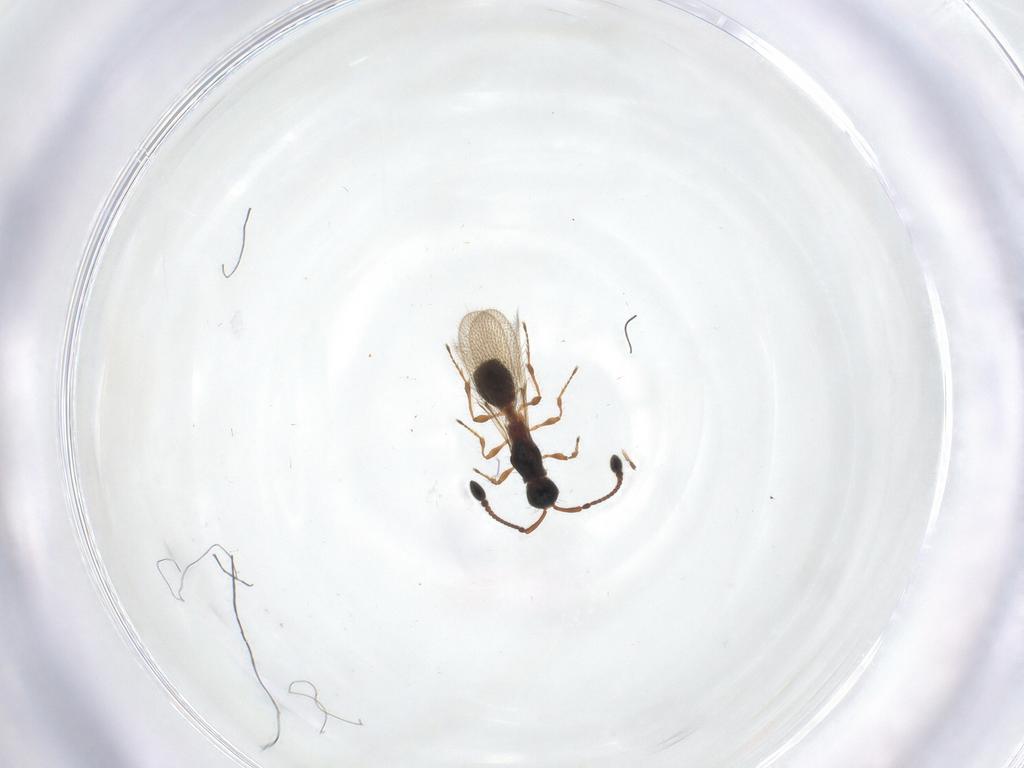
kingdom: Animalia
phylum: Arthropoda
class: Insecta
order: Hymenoptera
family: Diapriidae
